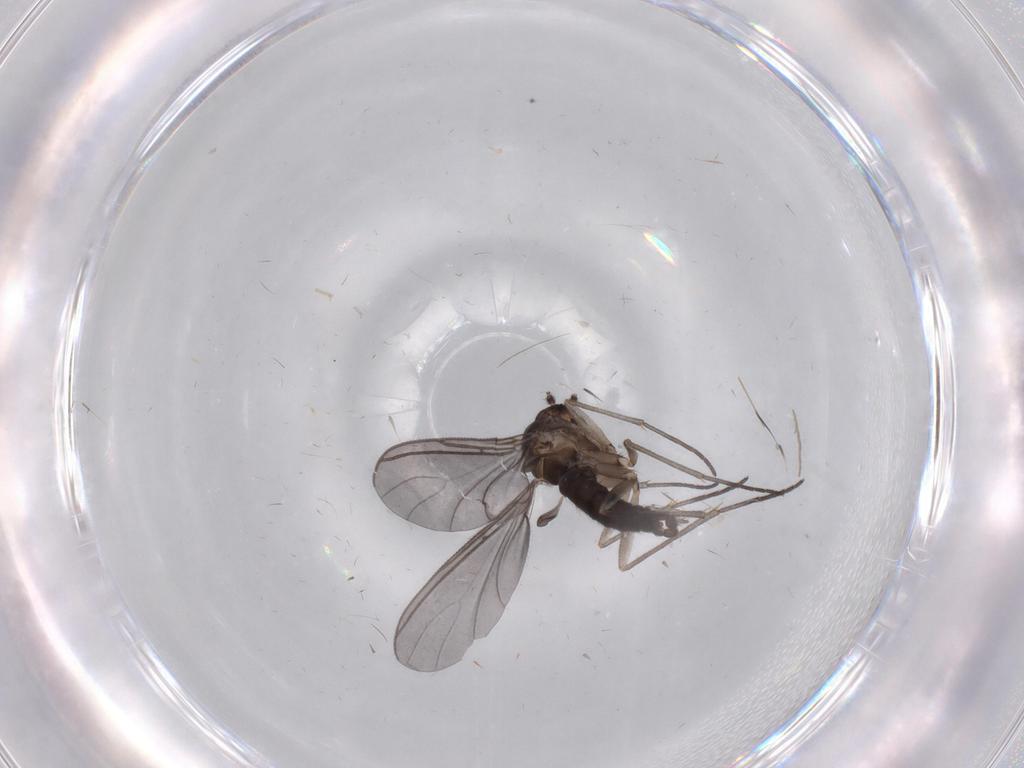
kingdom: Animalia
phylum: Arthropoda
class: Insecta
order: Diptera
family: Sciaridae
